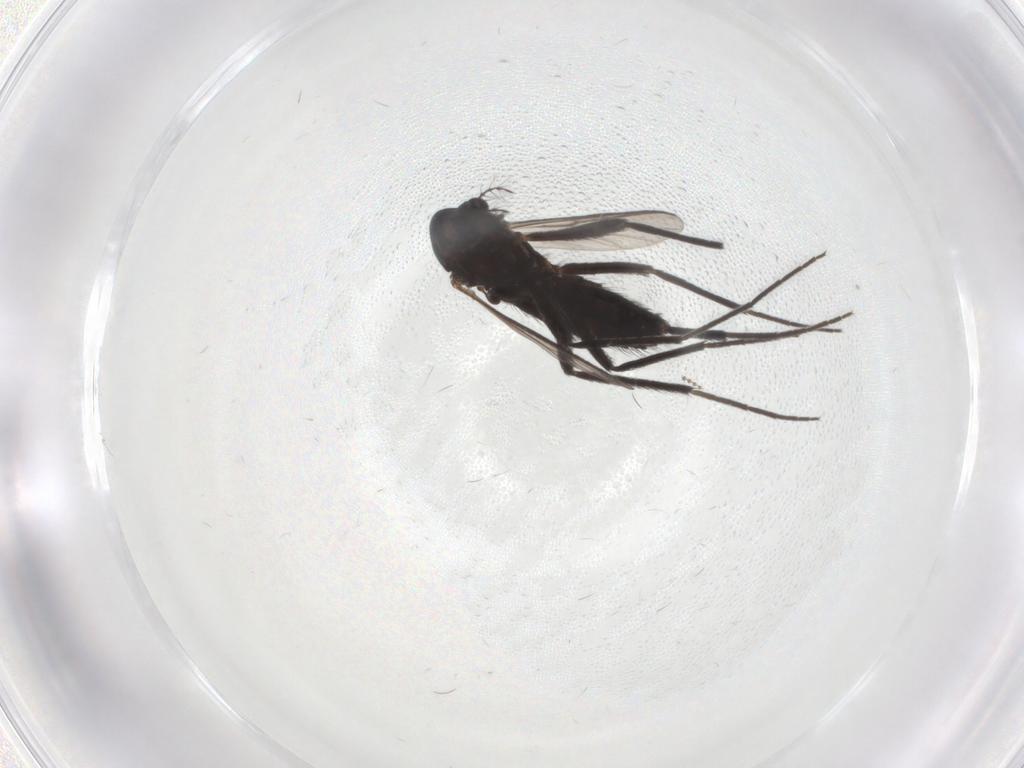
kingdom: Animalia
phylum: Arthropoda
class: Insecta
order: Diptera
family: Chironomidae
